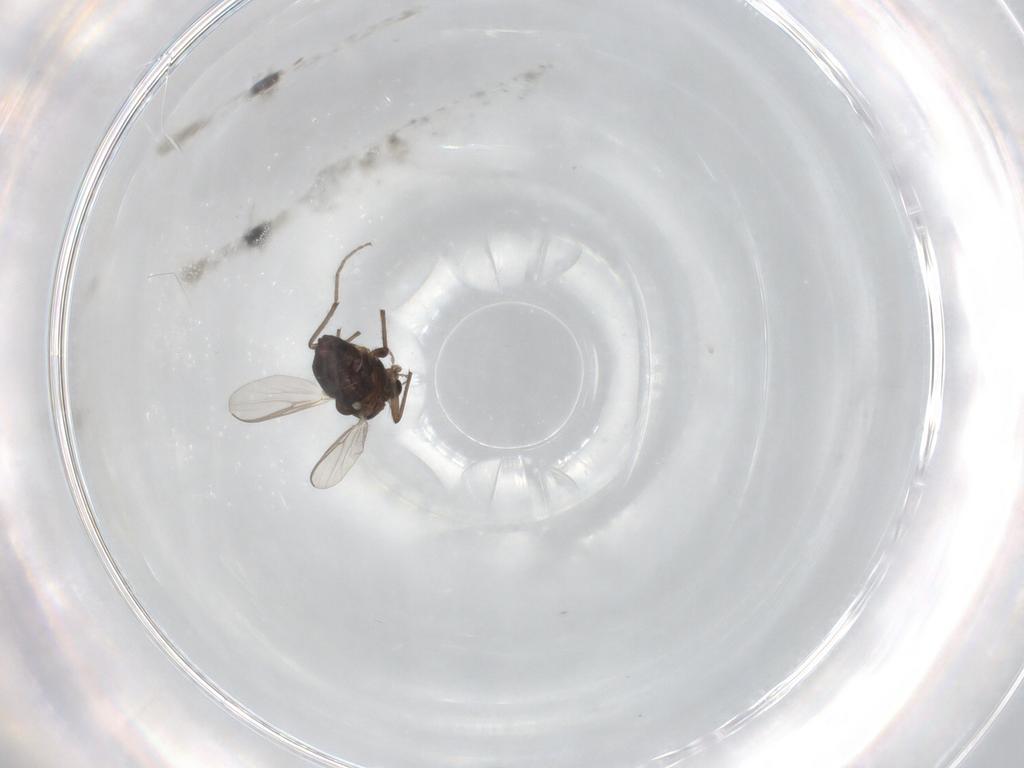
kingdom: Animalia
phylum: Arthropoda
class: Insecta
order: Diptera
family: Chironomidae
